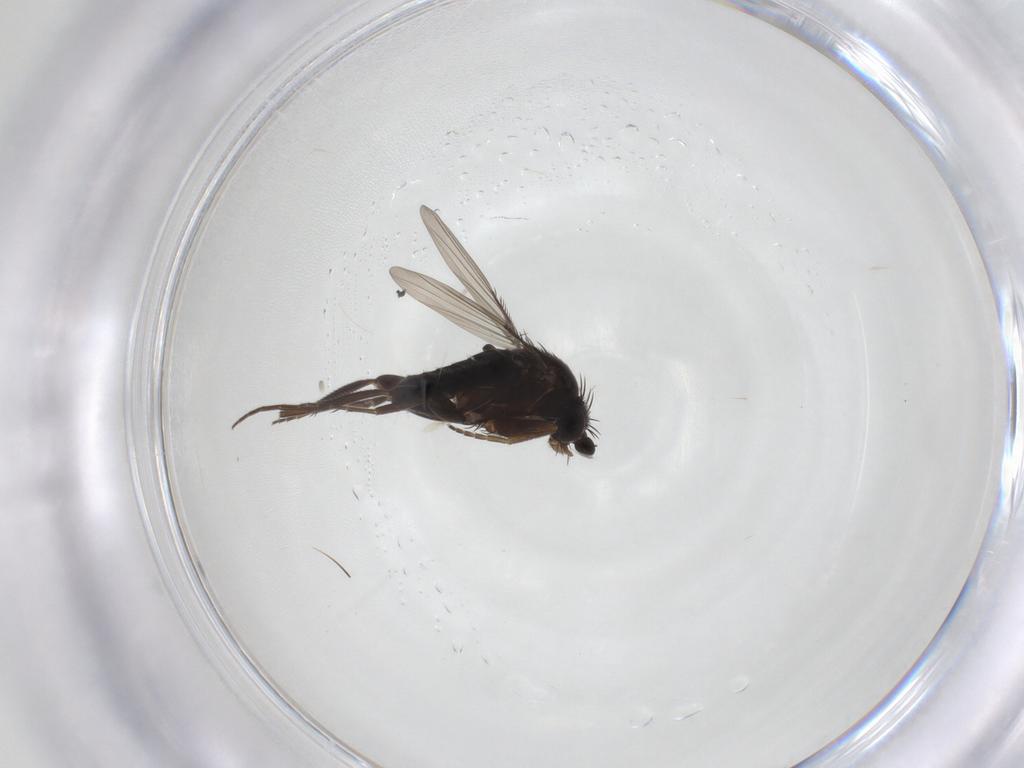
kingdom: Animalia
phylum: Arthropoda
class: Insecta
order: Diptera
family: Phoridae
